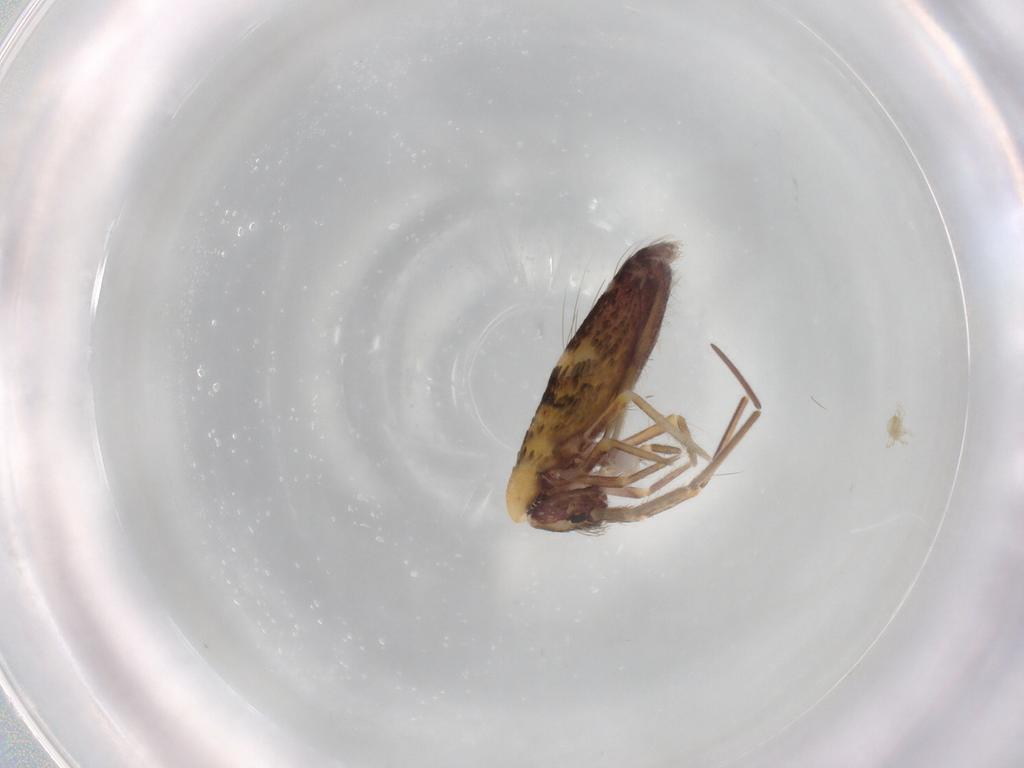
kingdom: Animalia
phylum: Arthropoda
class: Collembola
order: Entomobryomorpha
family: Entomobryidae
